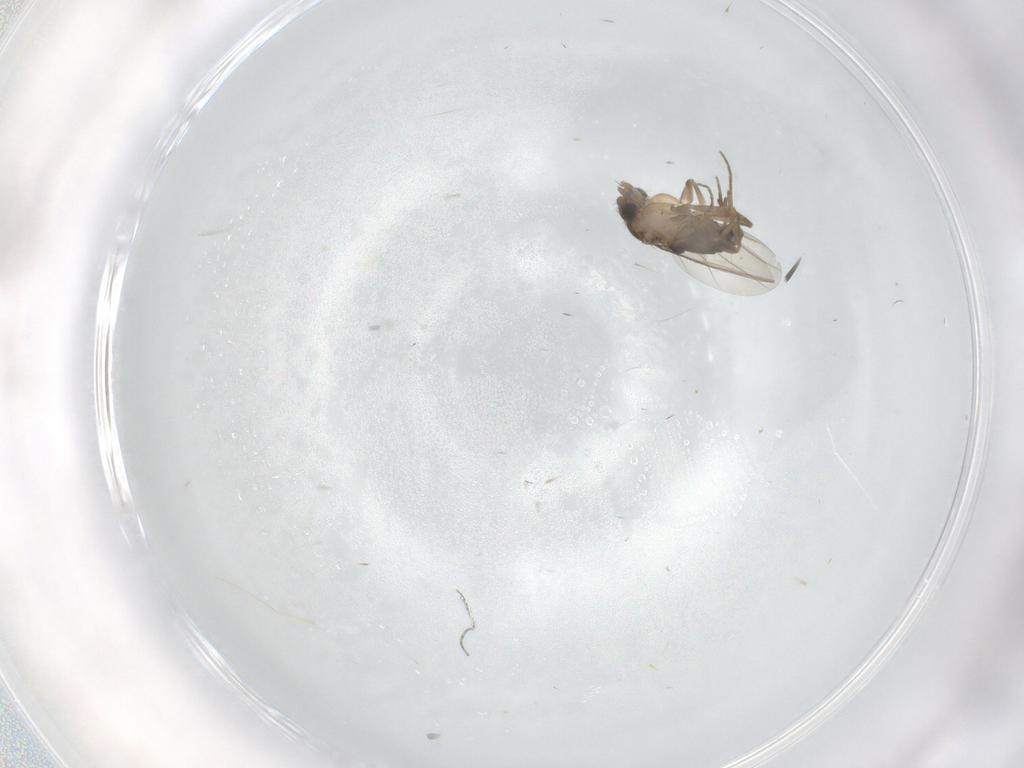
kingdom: Animalia
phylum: Arthropoda
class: Insecta
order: Diptera
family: Phoridae
